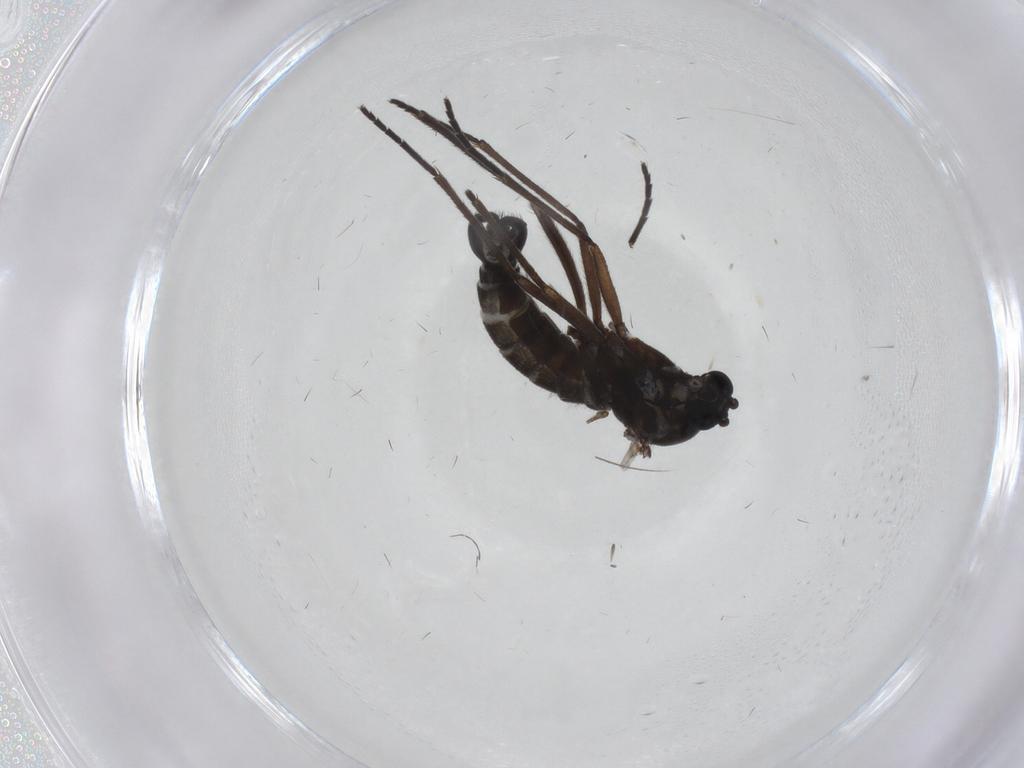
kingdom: Animalia
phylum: Arthropoda
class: Insecta
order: Diptera
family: Sciaridae
